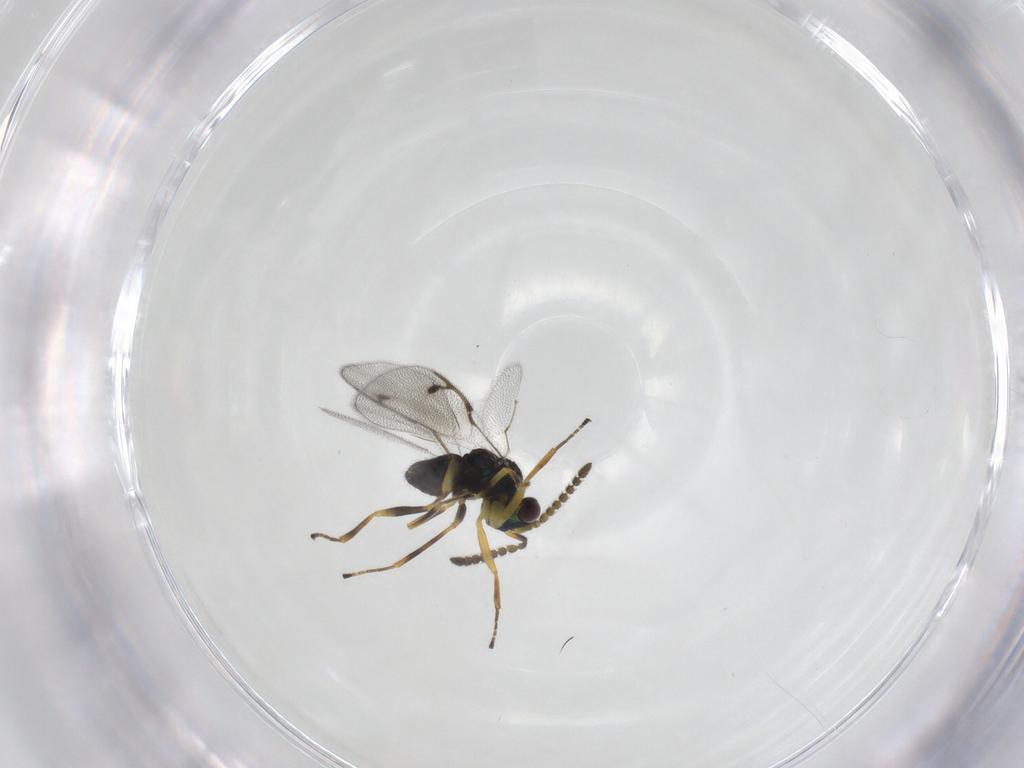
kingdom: Animalia
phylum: Arthropoda
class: Insecta
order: Hymenoptera
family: Pirenidae
